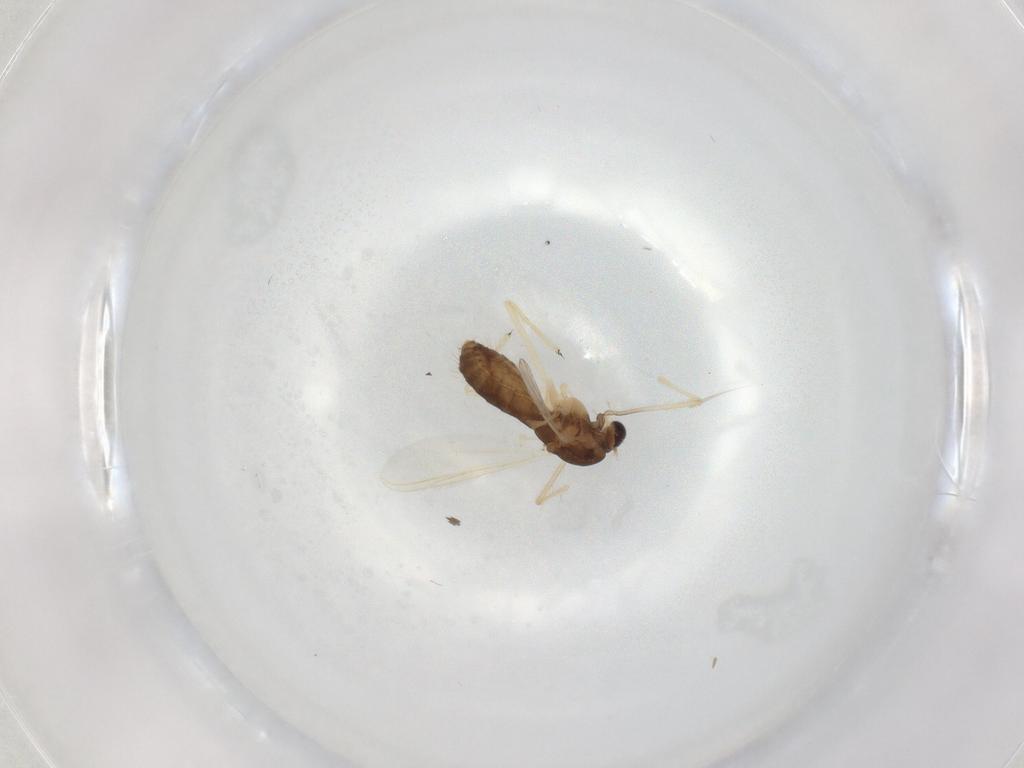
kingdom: Animalia
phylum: Arthropoda
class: Insecta
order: Diptera
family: Chironomidae
